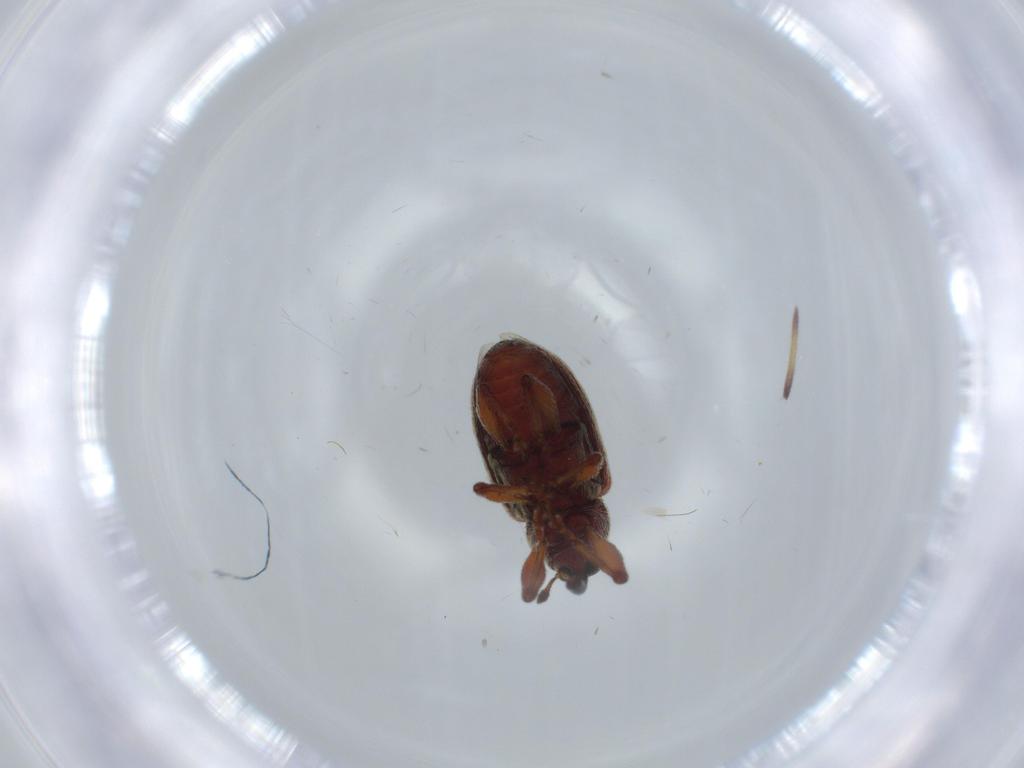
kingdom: Animalia
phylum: Arthropoda
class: Insecta
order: Coleoptera
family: Curculionidae
